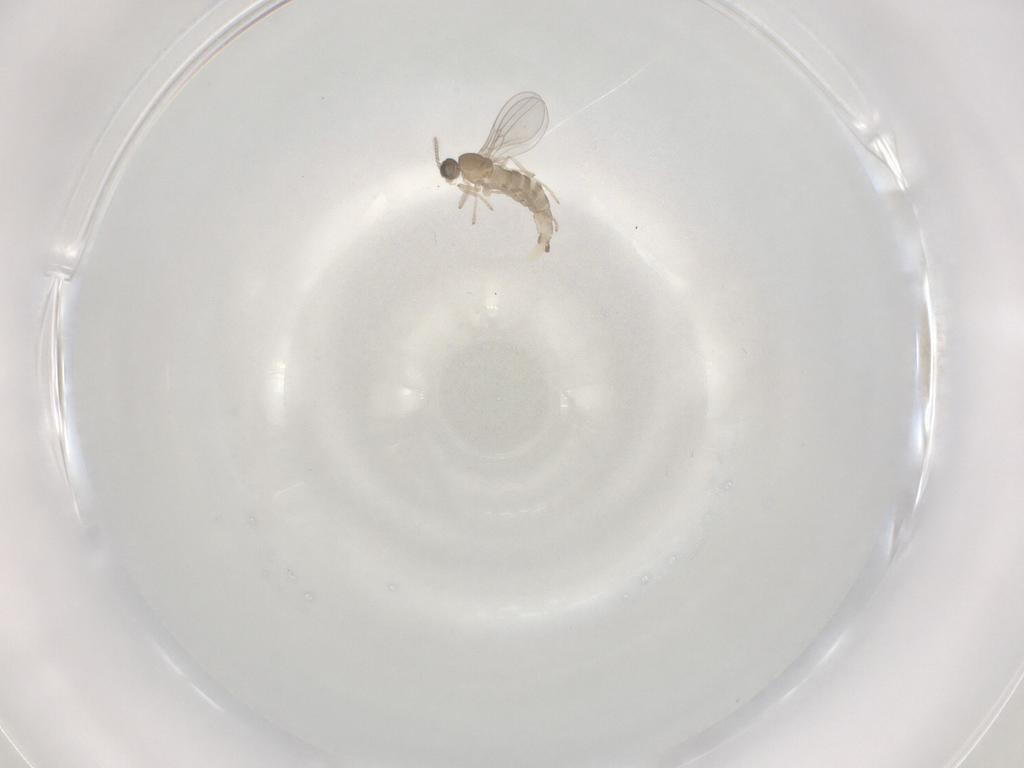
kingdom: Animalia
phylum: Arthropoda
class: Insecta
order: Diptera
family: Cecidomyiidae
